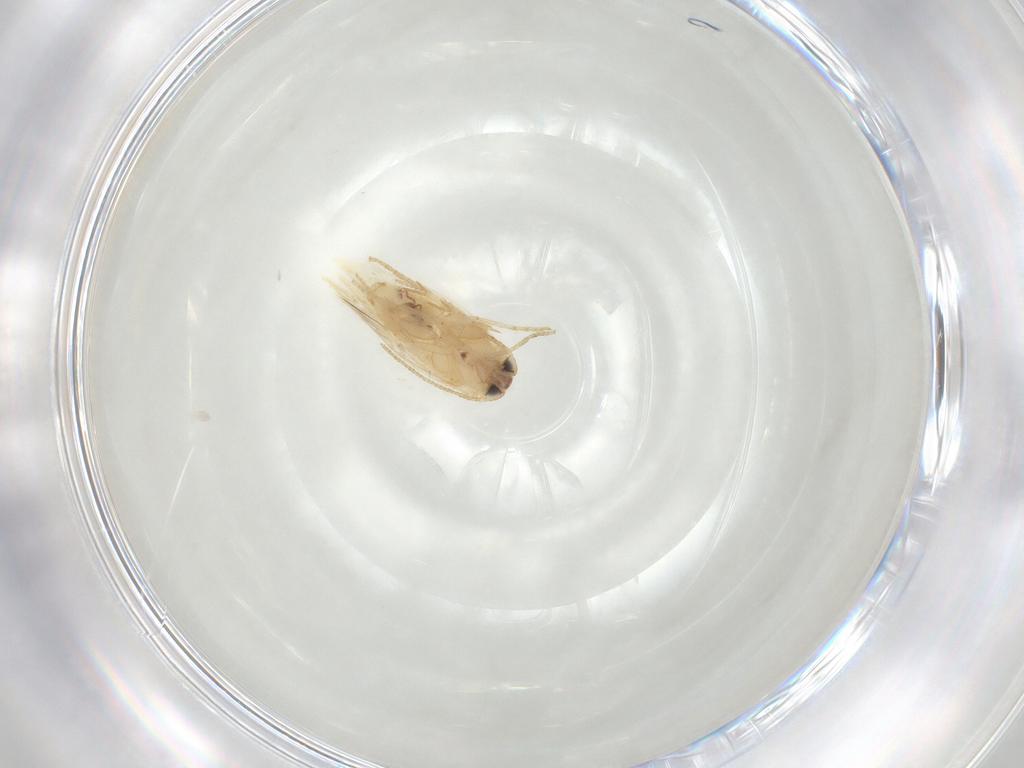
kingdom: Animalia
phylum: Arthropoda
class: Insecta
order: Lepidoptera
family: Nepticulidae
